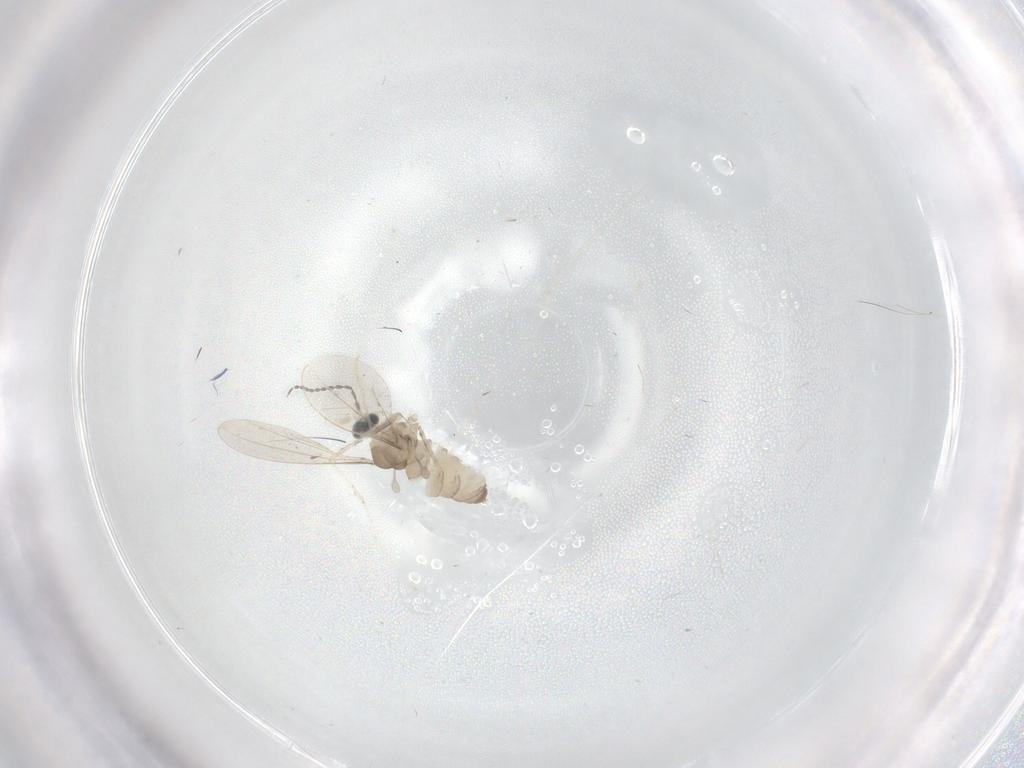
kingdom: Animalia
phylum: Arthropoda
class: Insecta
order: Diptera
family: Cecidomyiidae
